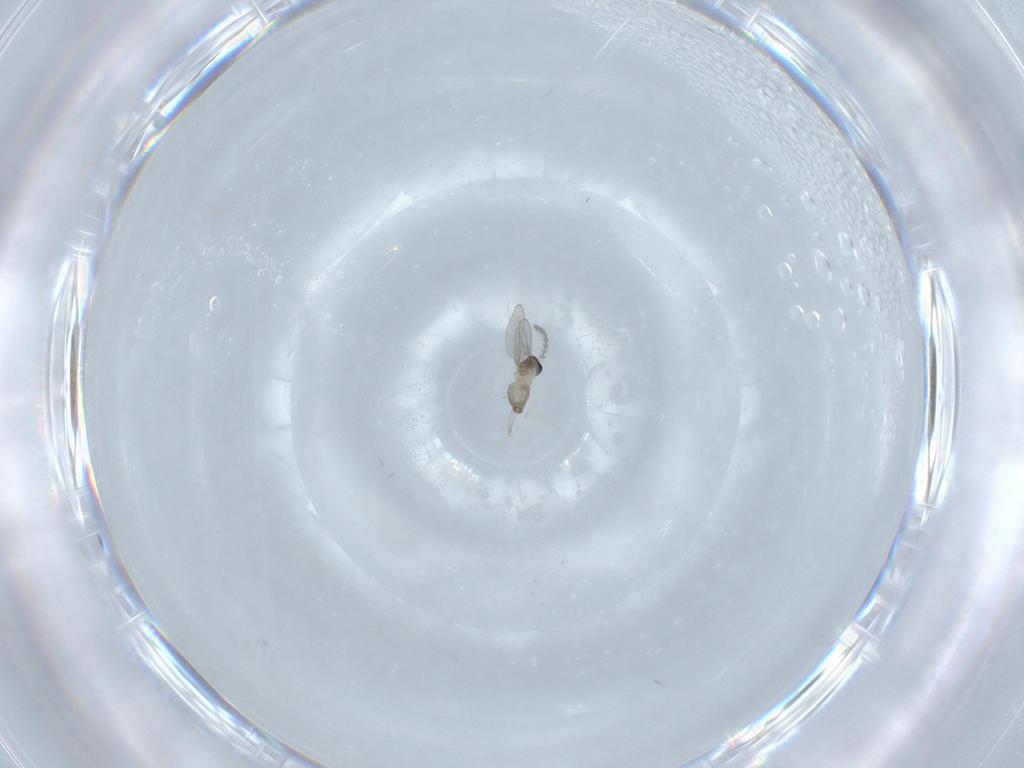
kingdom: Animalia
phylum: Arthropoda
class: Insecta
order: Diptera
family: Cecidomyiidae
